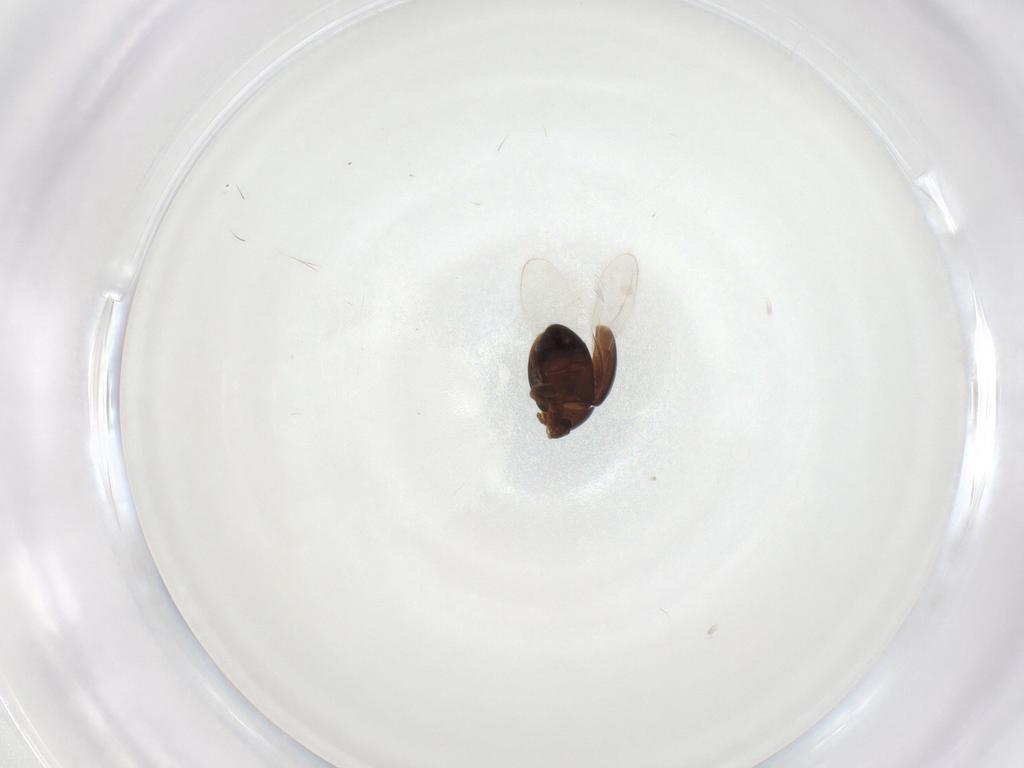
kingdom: Animalia
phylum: Arthropoda
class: Insecta
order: Coleoptera
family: Corylophidae
